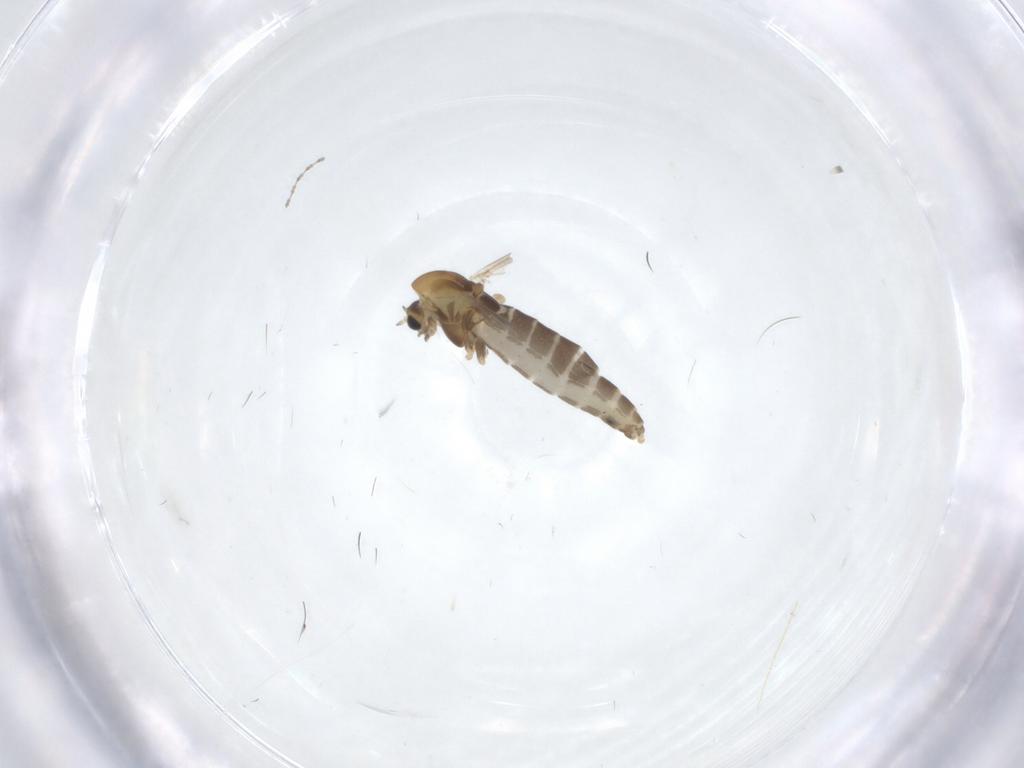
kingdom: Animalia
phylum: Arthropoda
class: Insecta
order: Diptera
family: Chironomidae
